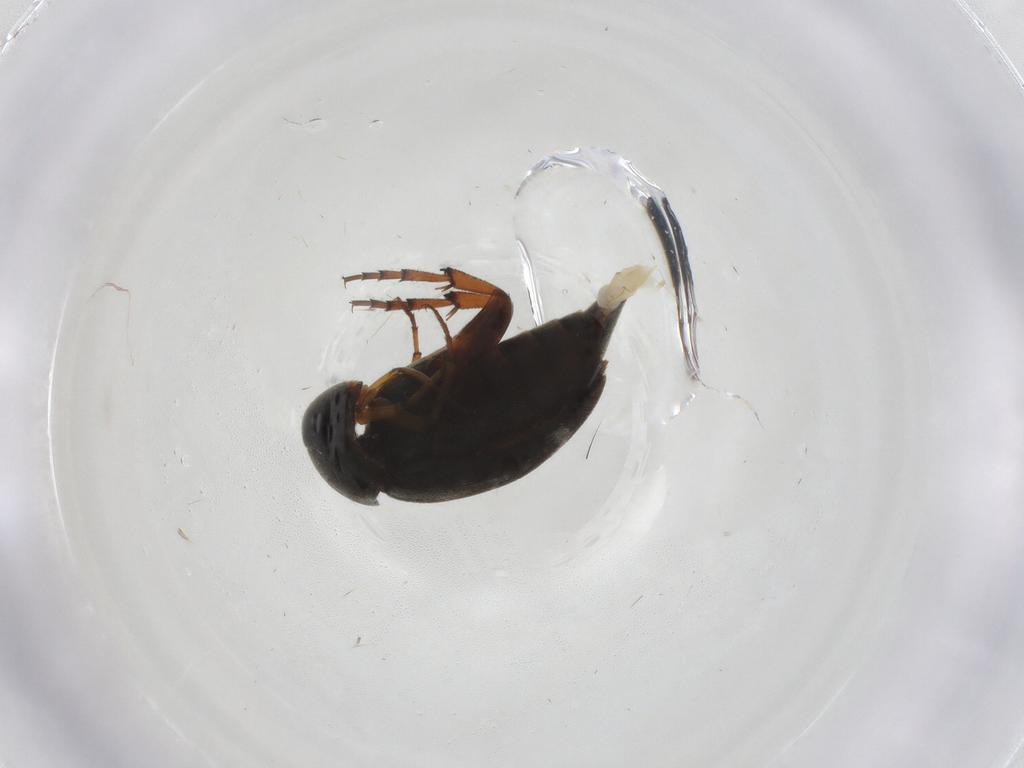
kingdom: Animalia
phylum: Arthropoda
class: Insecta
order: Coleoptera
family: Mordellidae
